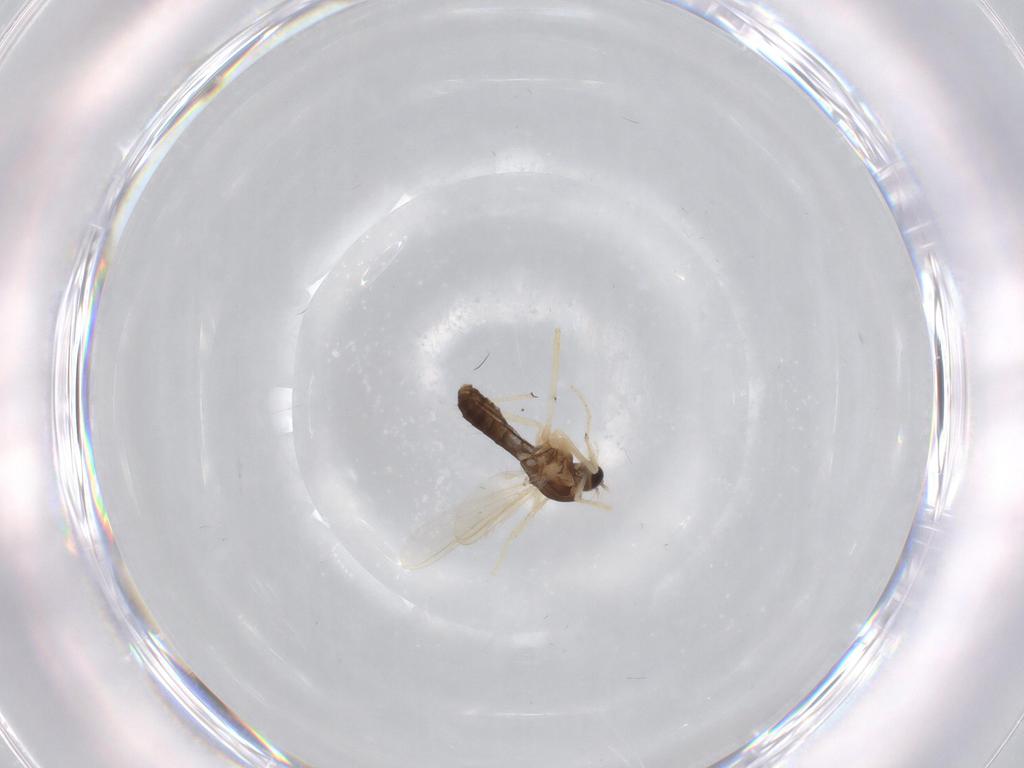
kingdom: Animalia
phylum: Arthropoda
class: Insecta
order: Diptera
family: Chironomidae
